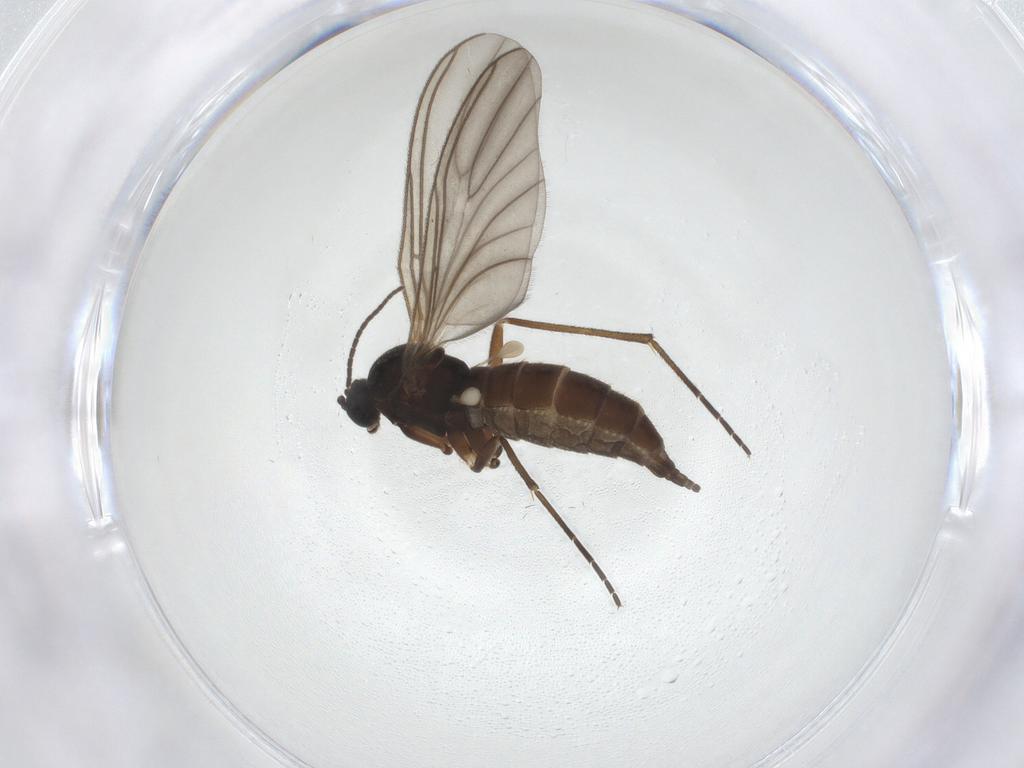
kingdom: Animalia
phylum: Arthropoda
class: Insecta
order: Diptera
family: Sciaridae
